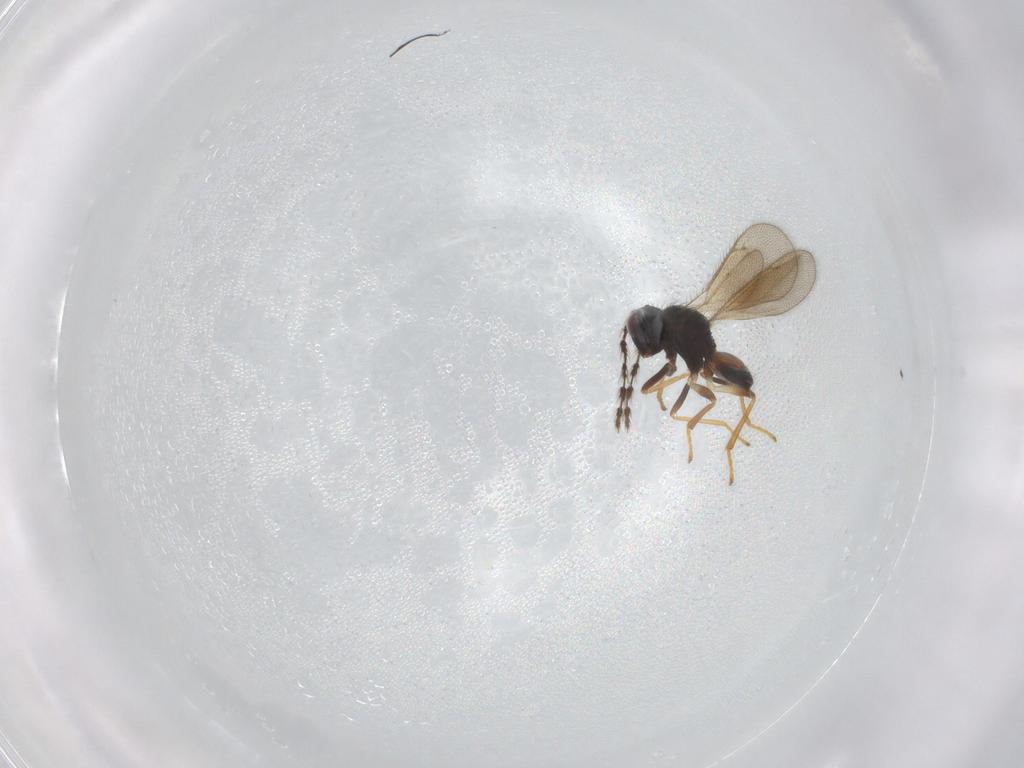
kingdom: Animalia
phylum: Arthropoda
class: Insecta
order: Hymenoptera
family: Eulophidae
